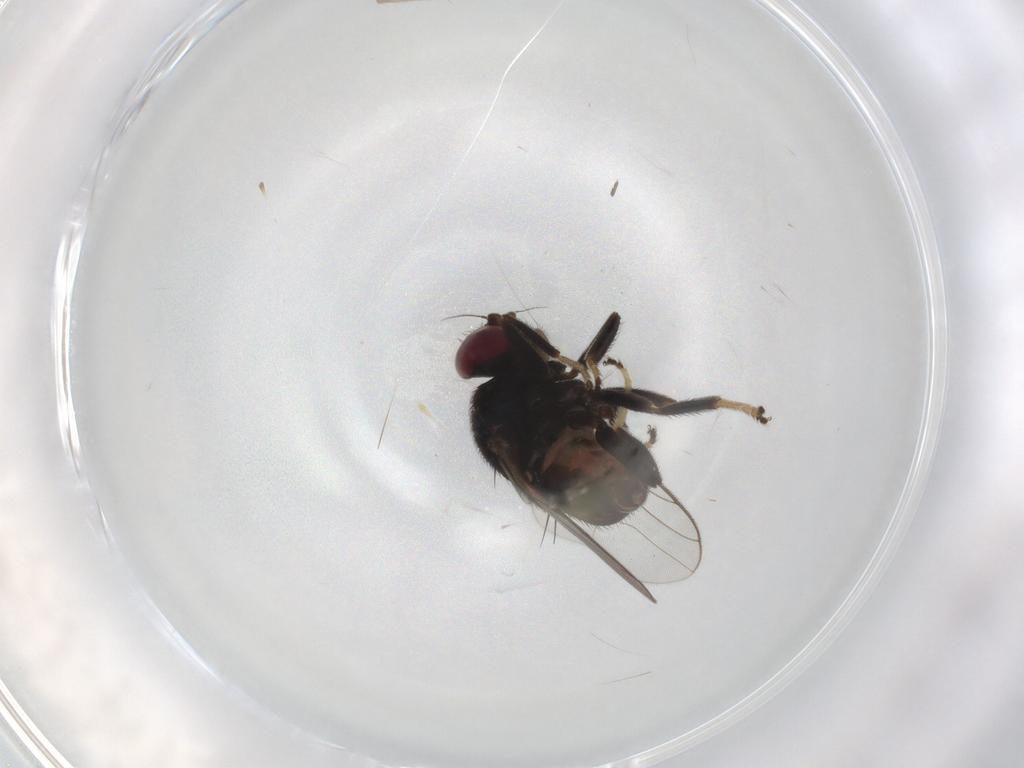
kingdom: Animalia
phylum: Arthropoda
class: Insecta
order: Diptera
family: Chloropidae
